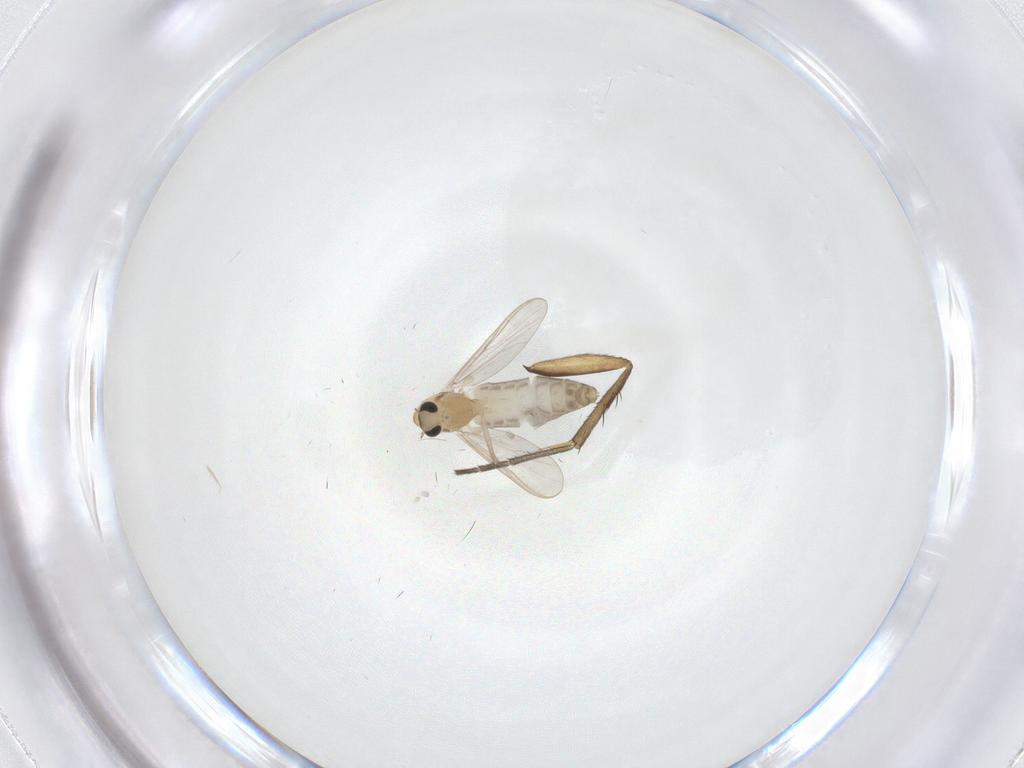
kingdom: Animalia
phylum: Arthropoda
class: Insecta
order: Diptera
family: Chironomidae
